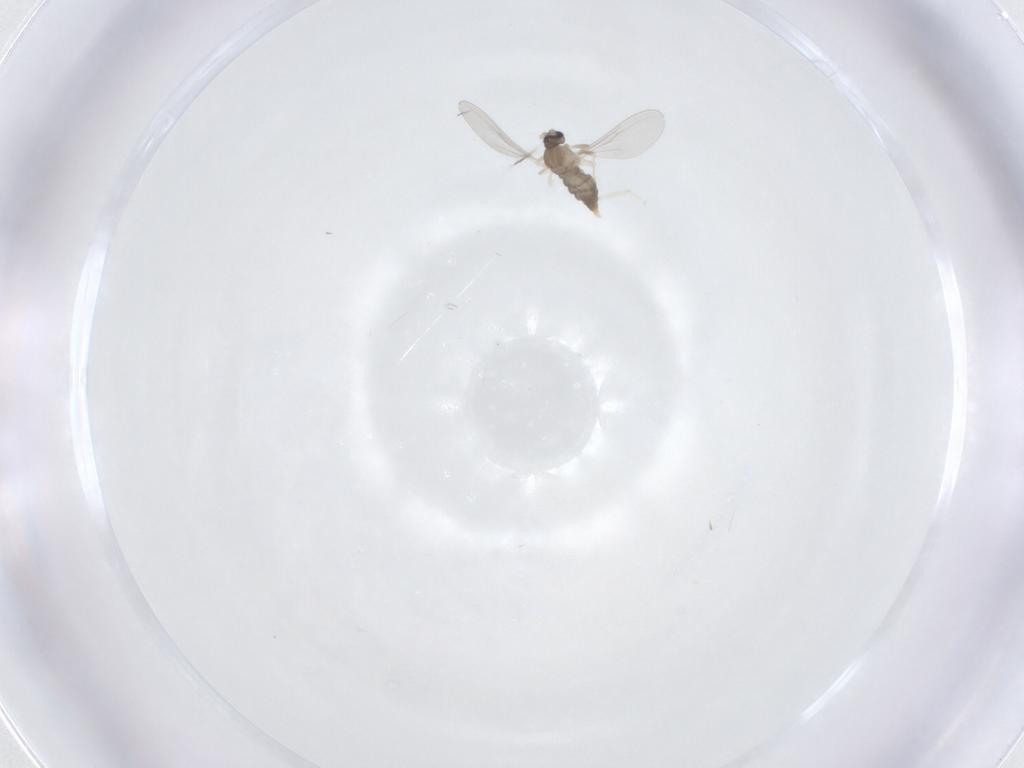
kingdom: Animalia
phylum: Arthropoda
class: Insecta
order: Diptera
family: Cecidomyiidae
